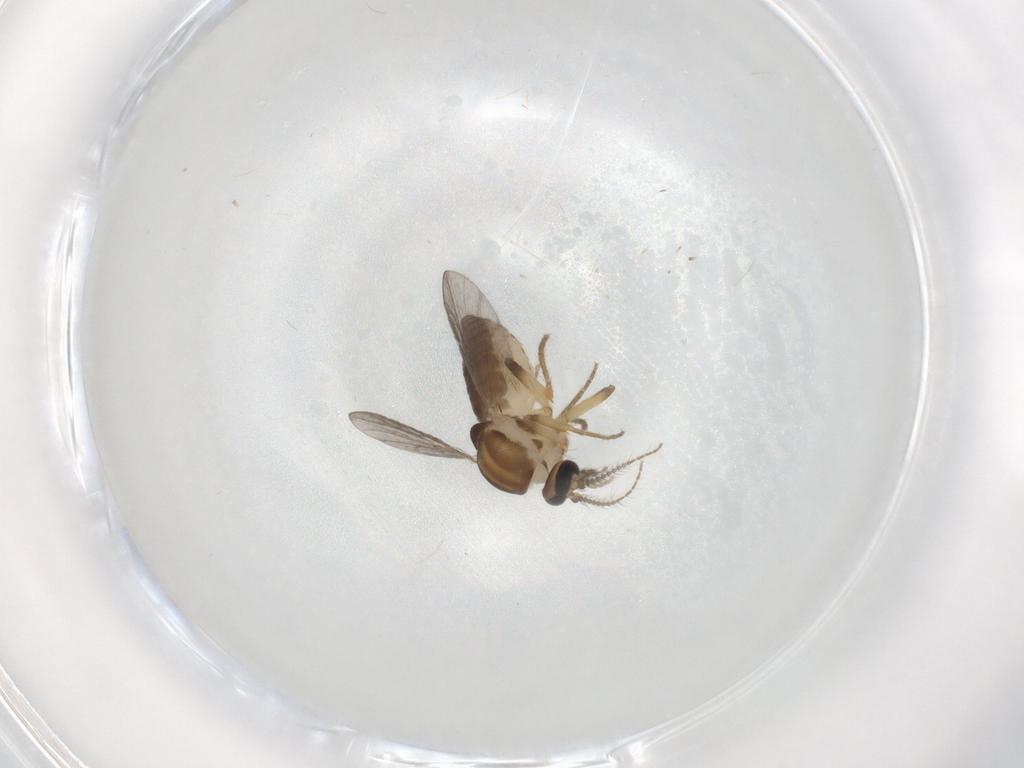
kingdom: Animalia
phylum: Arthropoda
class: Insecta
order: Diptera
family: Ceratopogonidae
